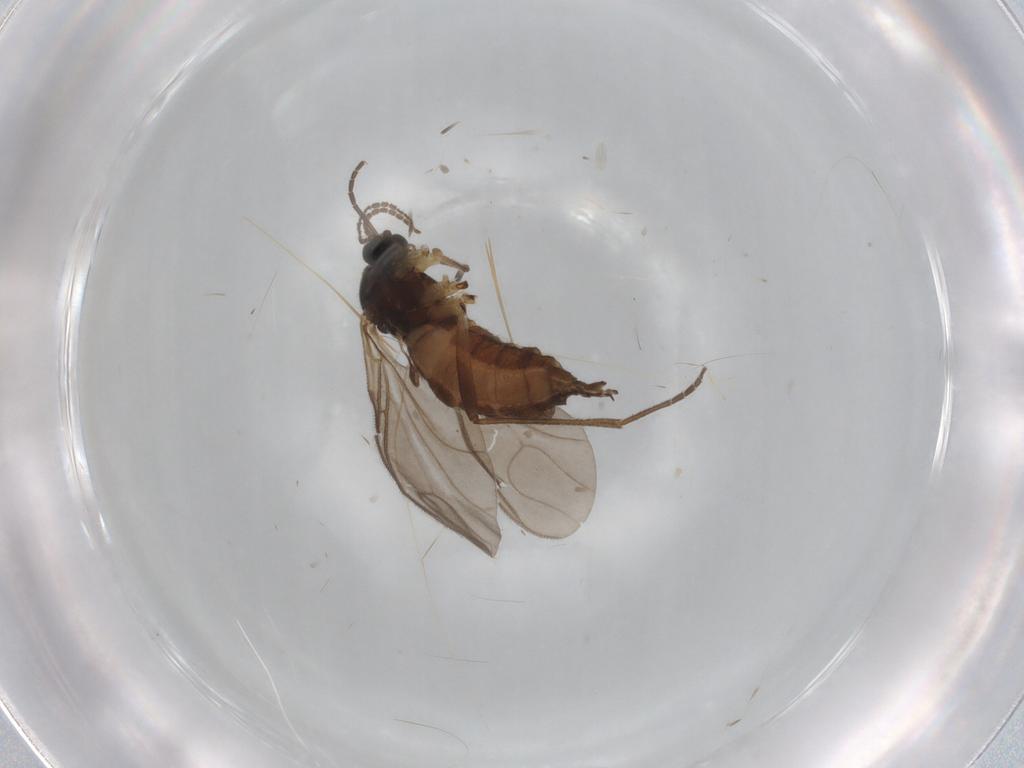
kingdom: Animalia
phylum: Arthropoda
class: Insecta
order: Diptera
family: Sciaridae
